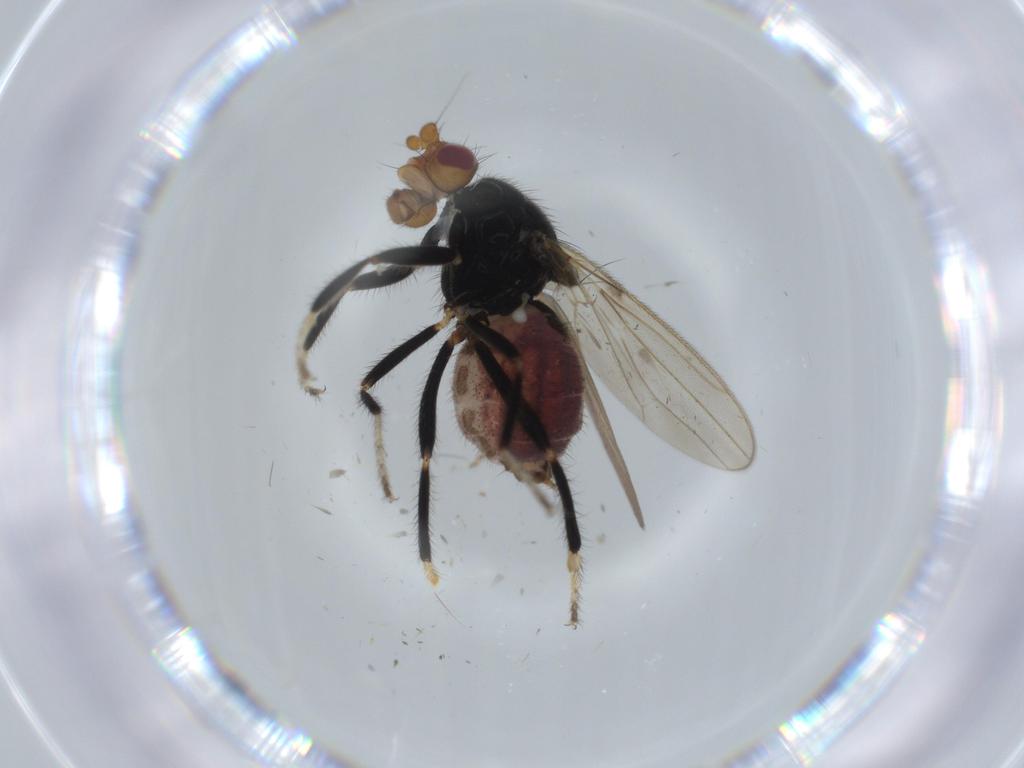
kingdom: Animalia
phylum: Arthropoda
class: Insecta
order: Diptera
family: Sphaeroceridae
